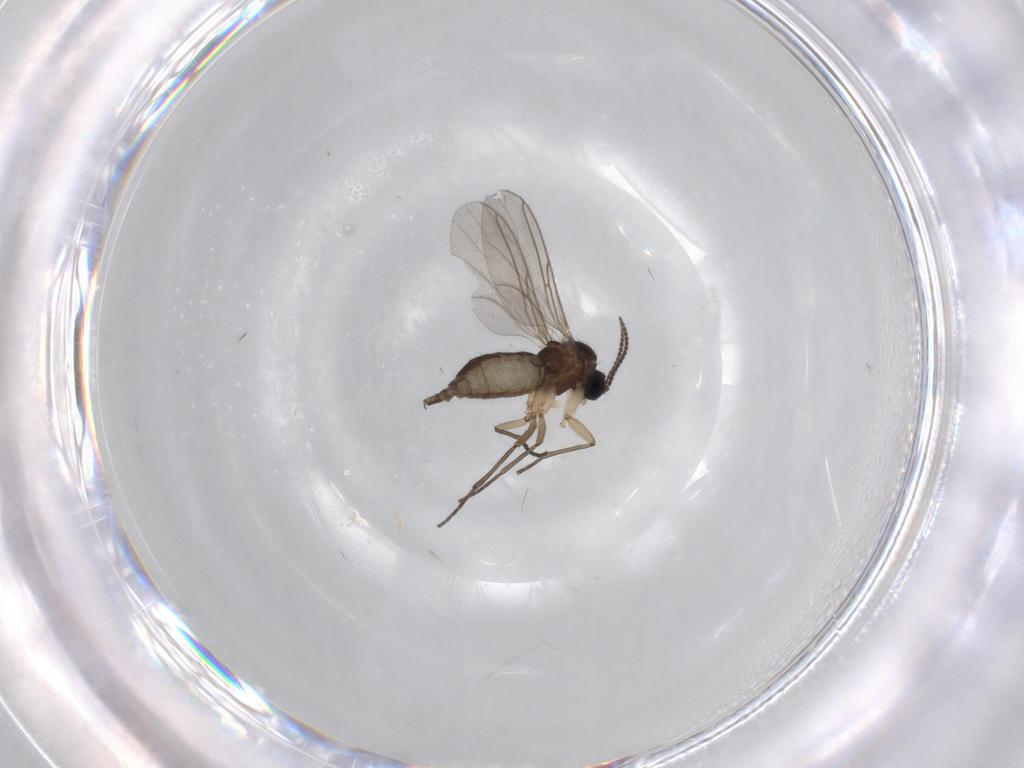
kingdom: Animalia
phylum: Arthropoda
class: Insecta
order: Diptera
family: Sciaridae
